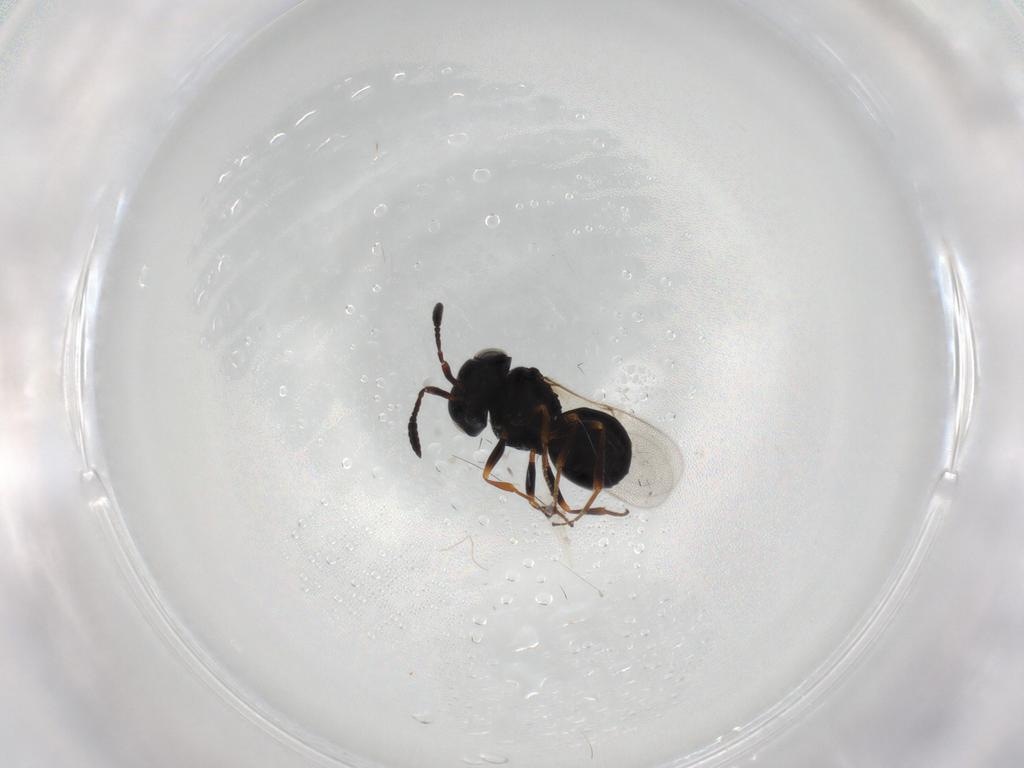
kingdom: Animalia
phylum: Arthropoda
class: Insecta
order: Hymenoptera
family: Scelionidae
